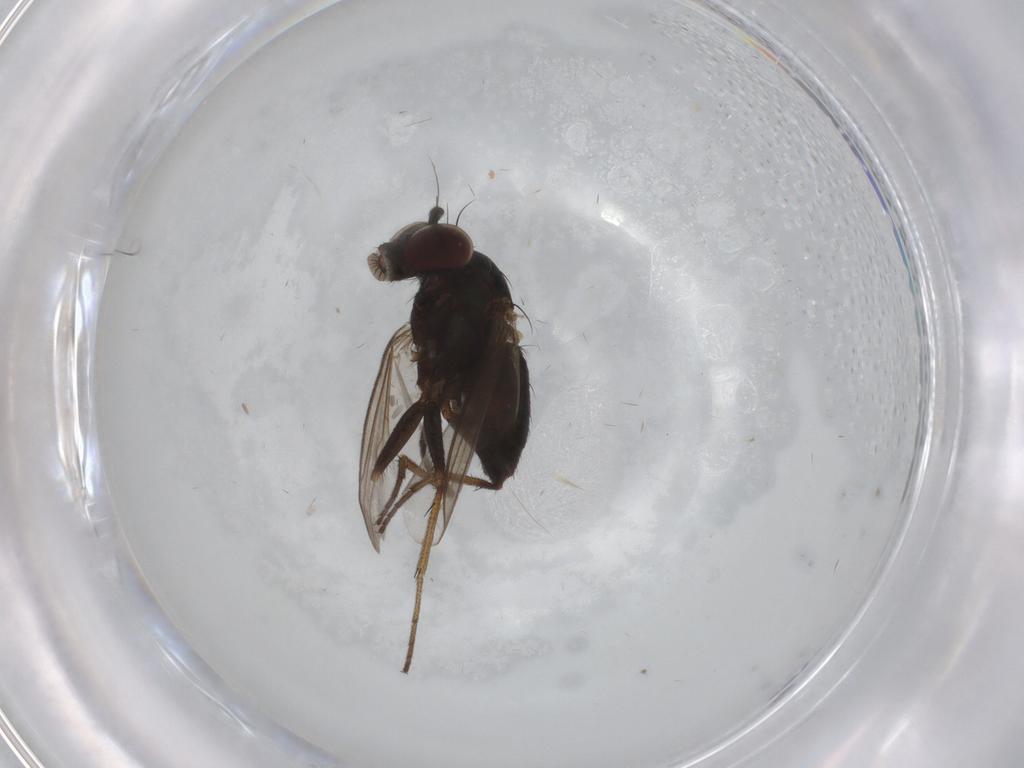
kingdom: Animalia
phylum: Arthropoda
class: Insecta
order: Diptera
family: Dolichopodidae
